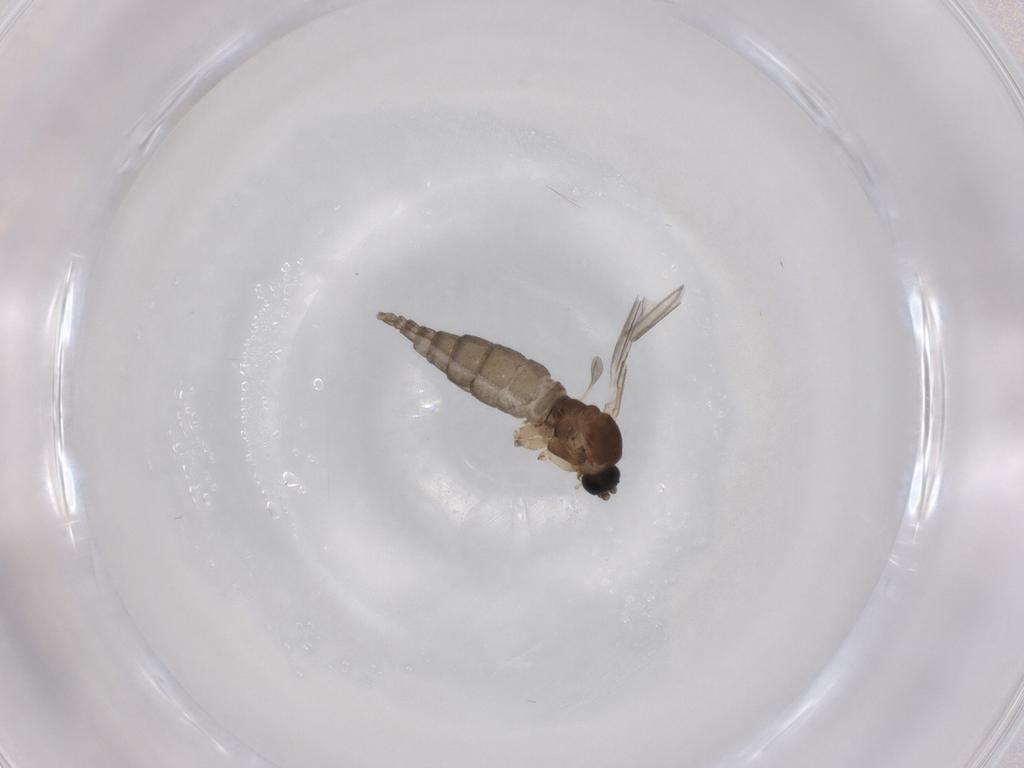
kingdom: Animalia
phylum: Arthropoda
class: Insecta
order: Diptera
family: Sciaridae
